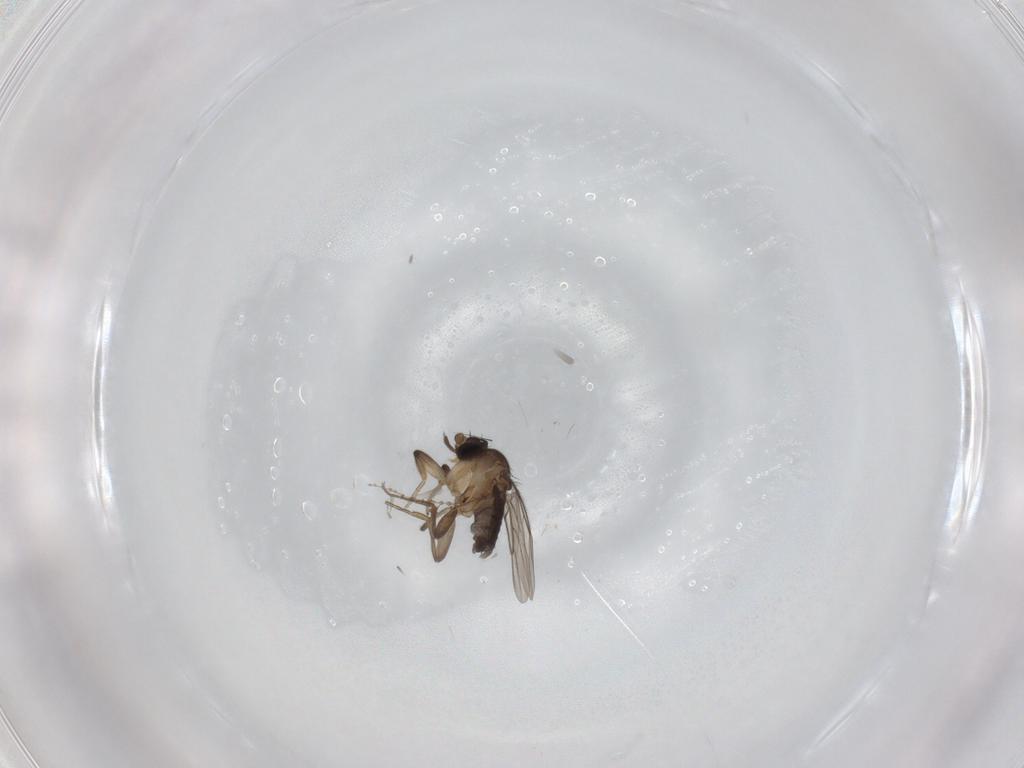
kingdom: Animalia
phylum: Arthropoda
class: Insecta
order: Diptera
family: Phoridae
